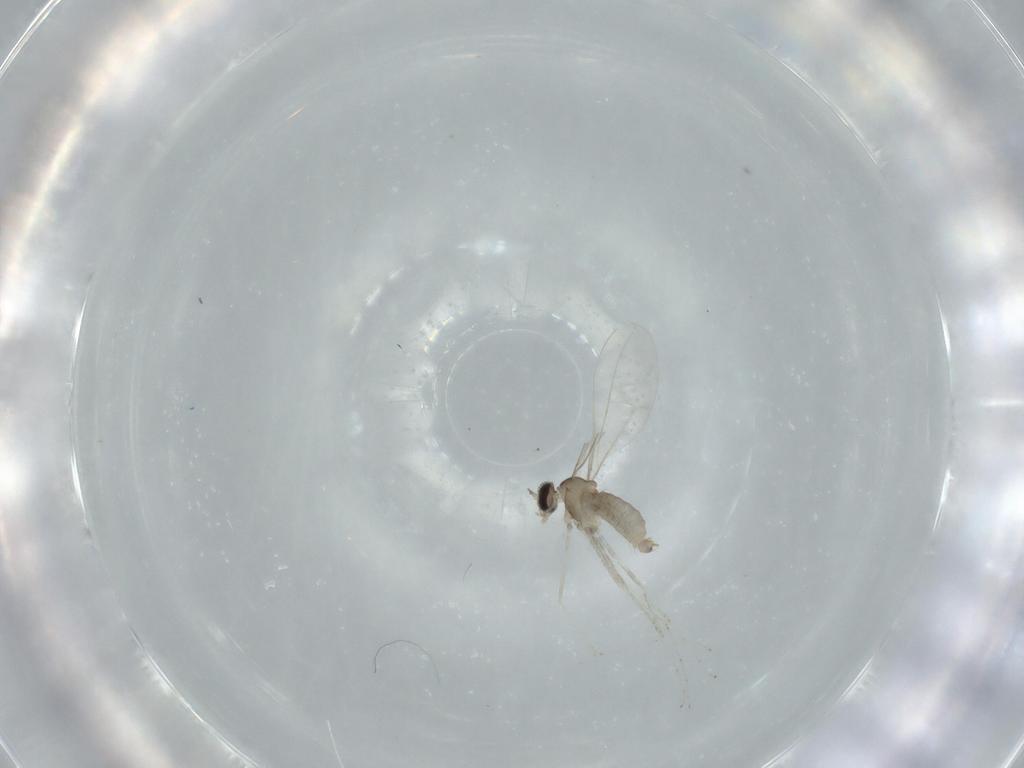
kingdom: Animalia
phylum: Arthropoda
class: Insecta
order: Diptera
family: Cecidomyiidae
